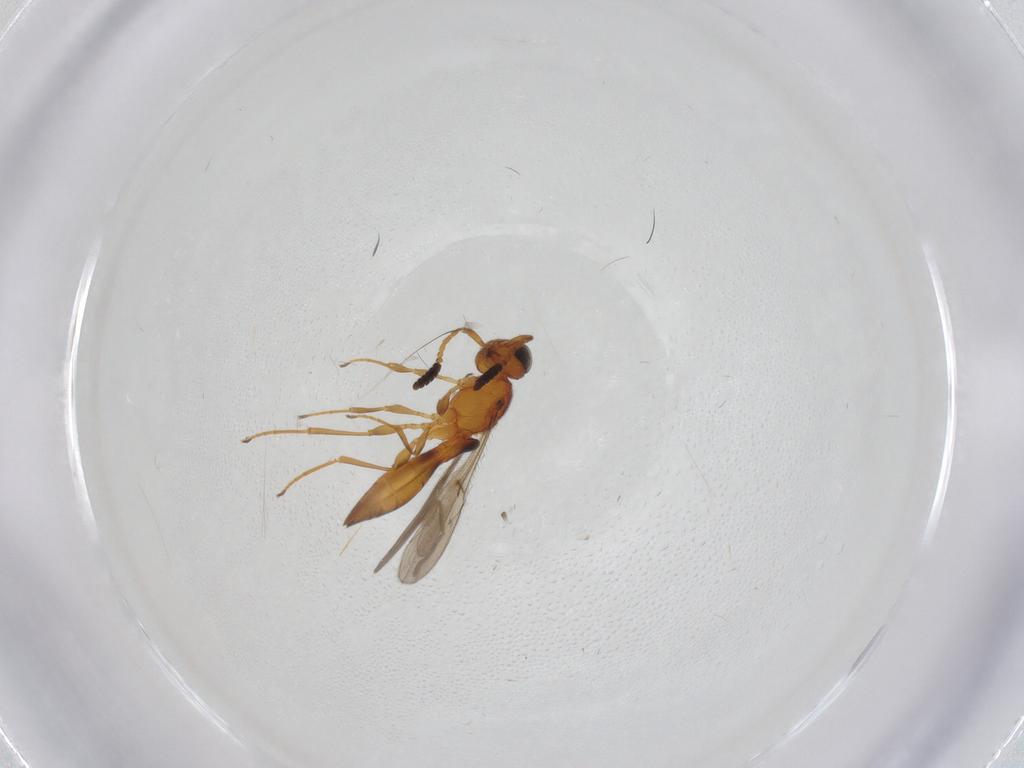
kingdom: Animalia
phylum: Arthropoda
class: Insecta
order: Hymenoptera
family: Scelionidae
